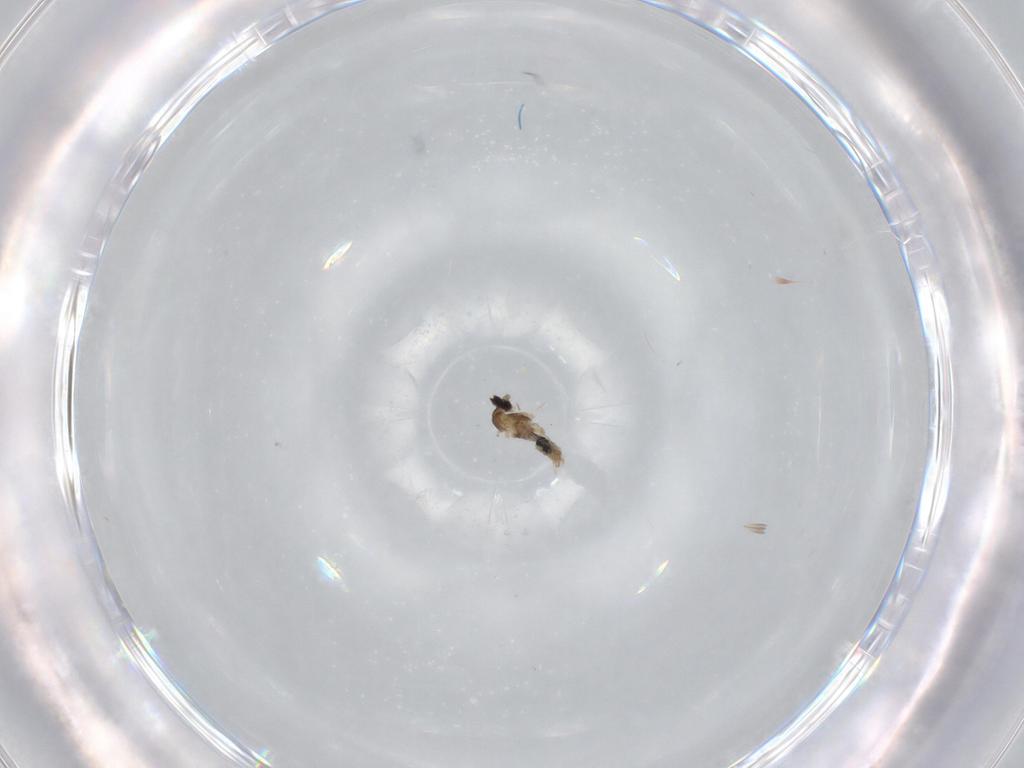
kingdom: Animalia
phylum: Arthropoda
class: Insecta
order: Diptera
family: Cecidomyiidae
